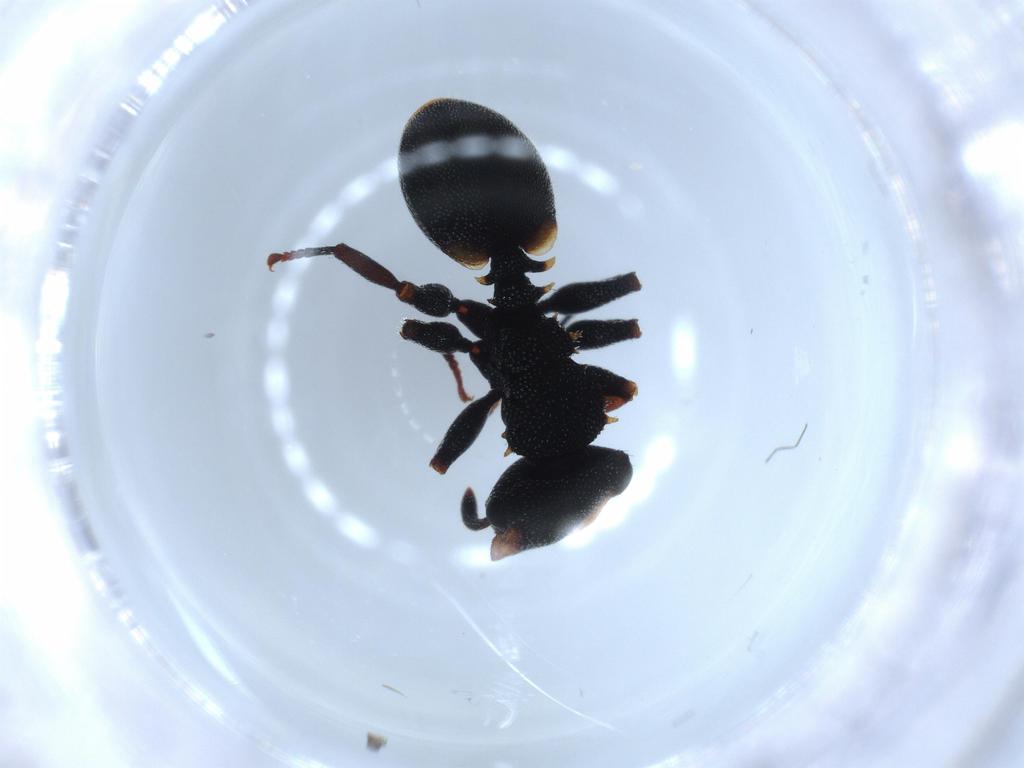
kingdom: Animalia
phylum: Arthropoda
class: Insecta
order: Hymenoptera
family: Formicidae
